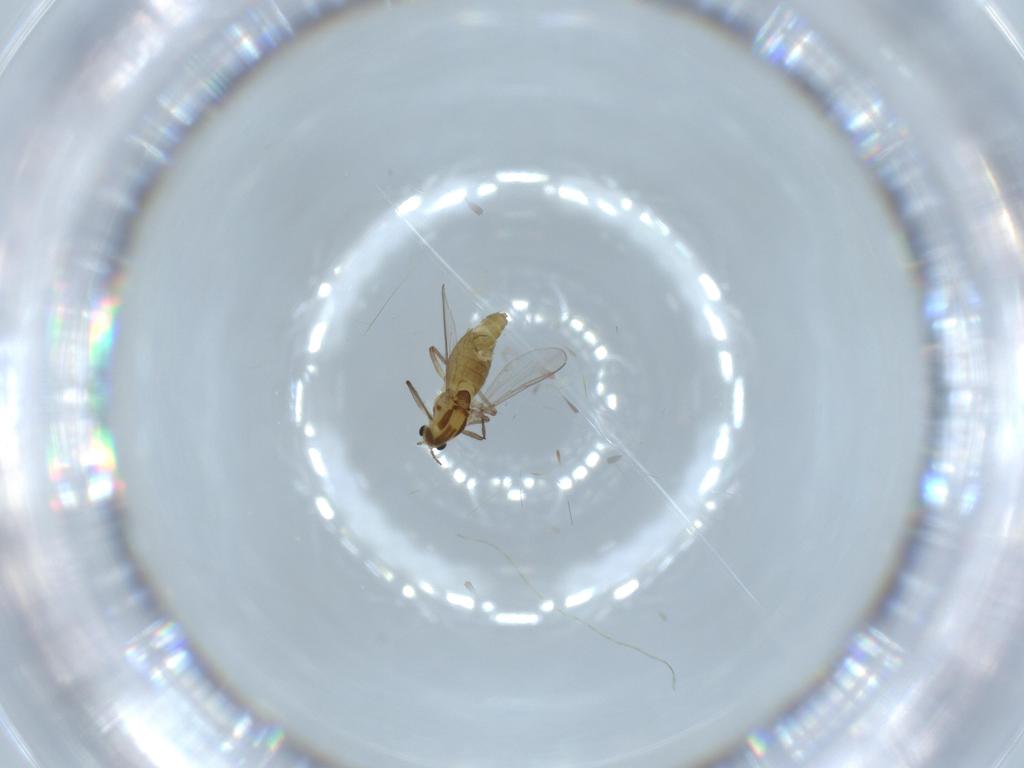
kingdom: Animalia
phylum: Arthropoda
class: Insecta
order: Diptera
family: Chironomidae
